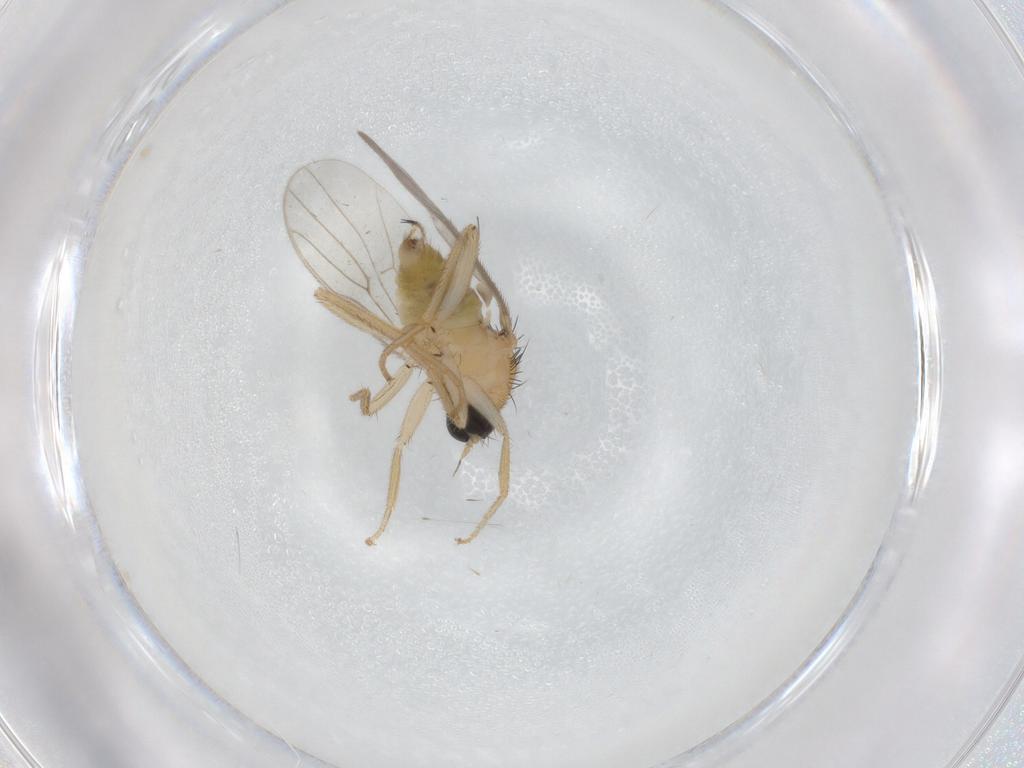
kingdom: Animalia
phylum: Arthropoda
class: Insecta
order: Diptera
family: Hybotidae
